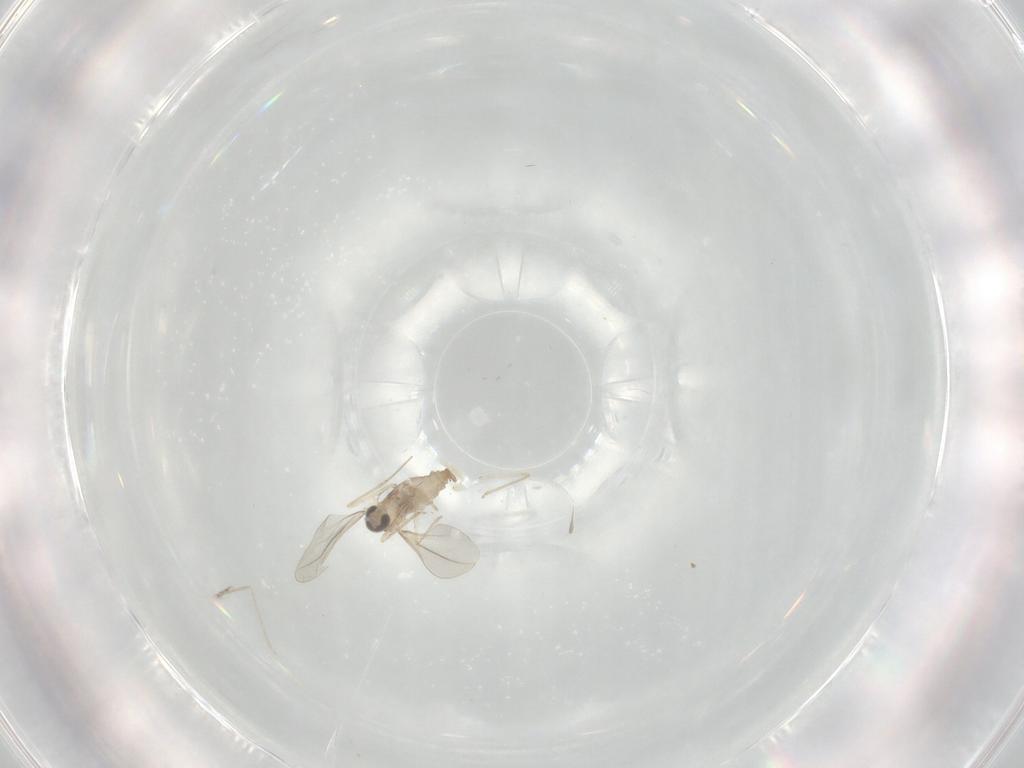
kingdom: Animalia
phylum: Arthropoda
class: Insecta
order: Diptera
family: Cecidomyiidae
